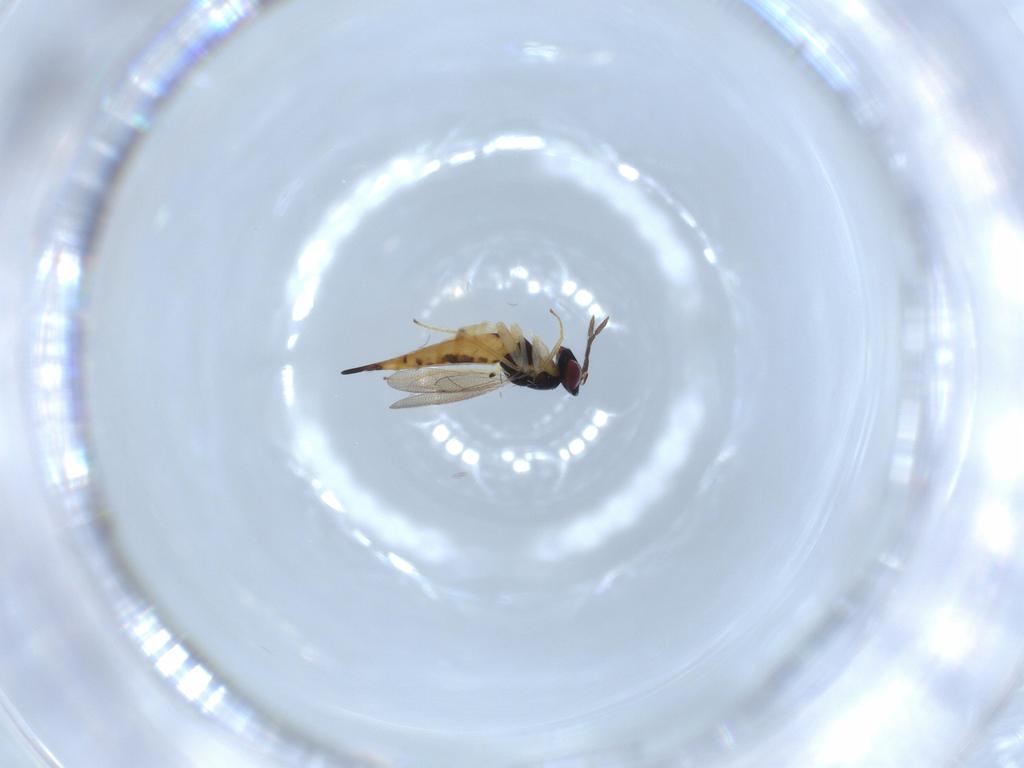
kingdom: Animalia
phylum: Arthropoda
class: Insecta
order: Hymenoptera
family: Eulophidae
